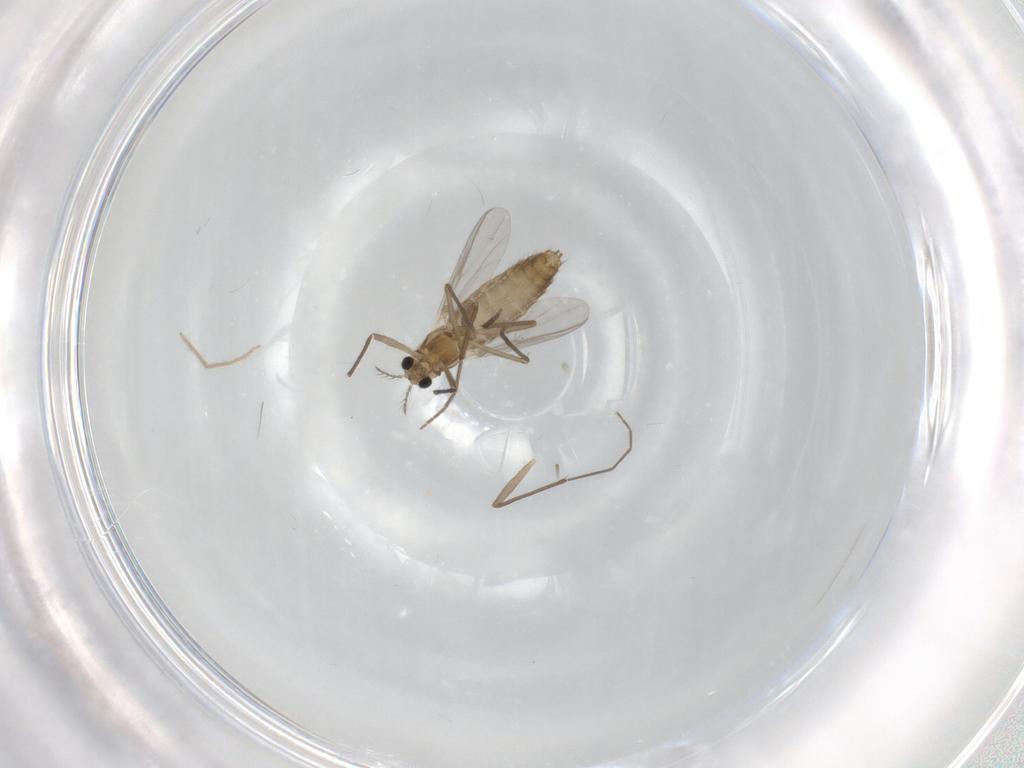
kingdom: Animalia
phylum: Arthropoda
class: Insecta
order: Diptera
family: Chironomidae
